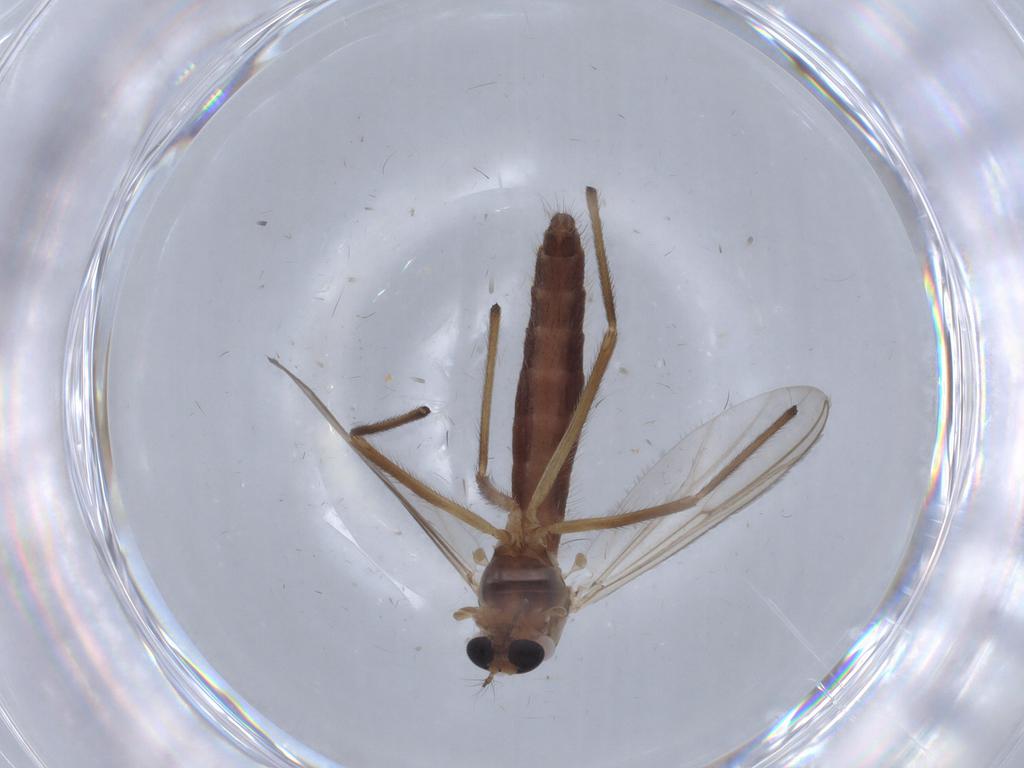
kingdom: Animalia
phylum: Arthropoda
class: Insecta
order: Diptera
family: Chironomidae
